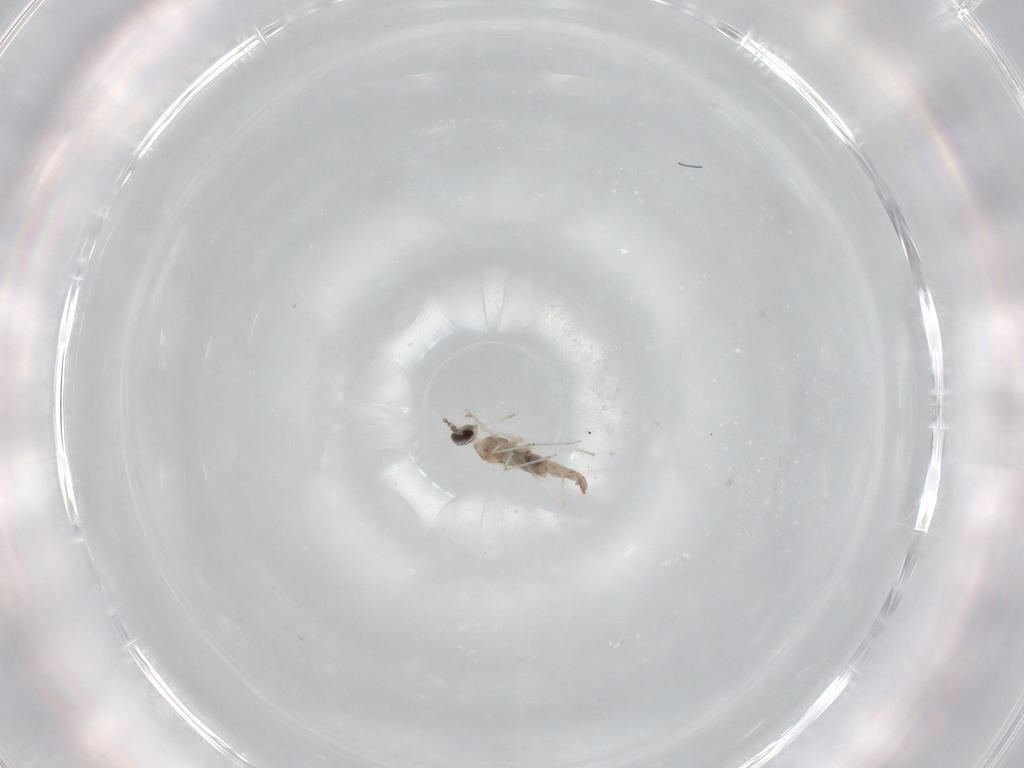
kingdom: Animalia
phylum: Arthropoda
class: Insecta
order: Diptera
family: Cecidomyiidae
